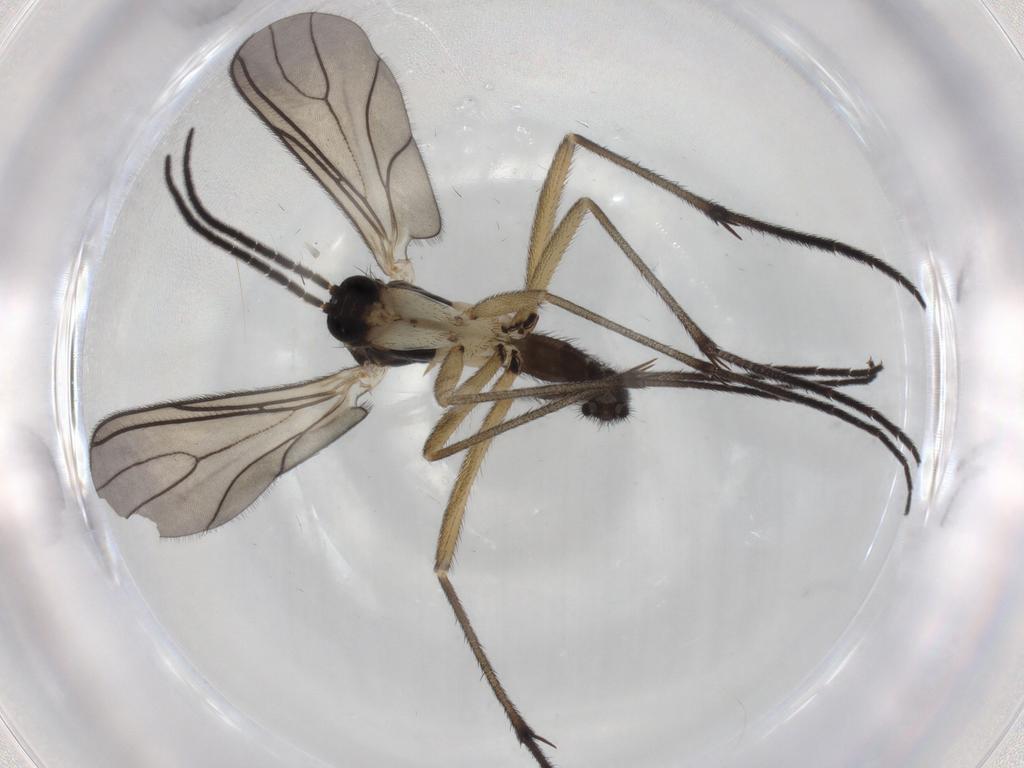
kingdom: Animalia
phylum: Arthropoda
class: Insecta
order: Diptera
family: Sciaridae
